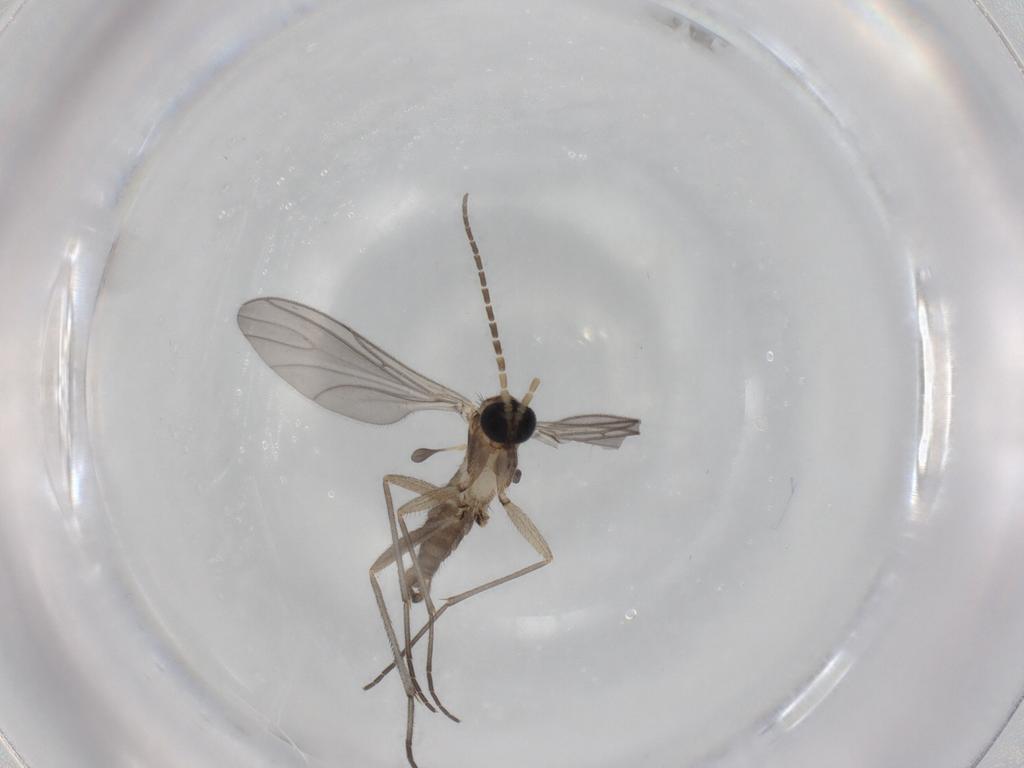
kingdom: Animalia
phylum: Arthropoda
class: Insecta
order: Diptera
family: Sciaridae
